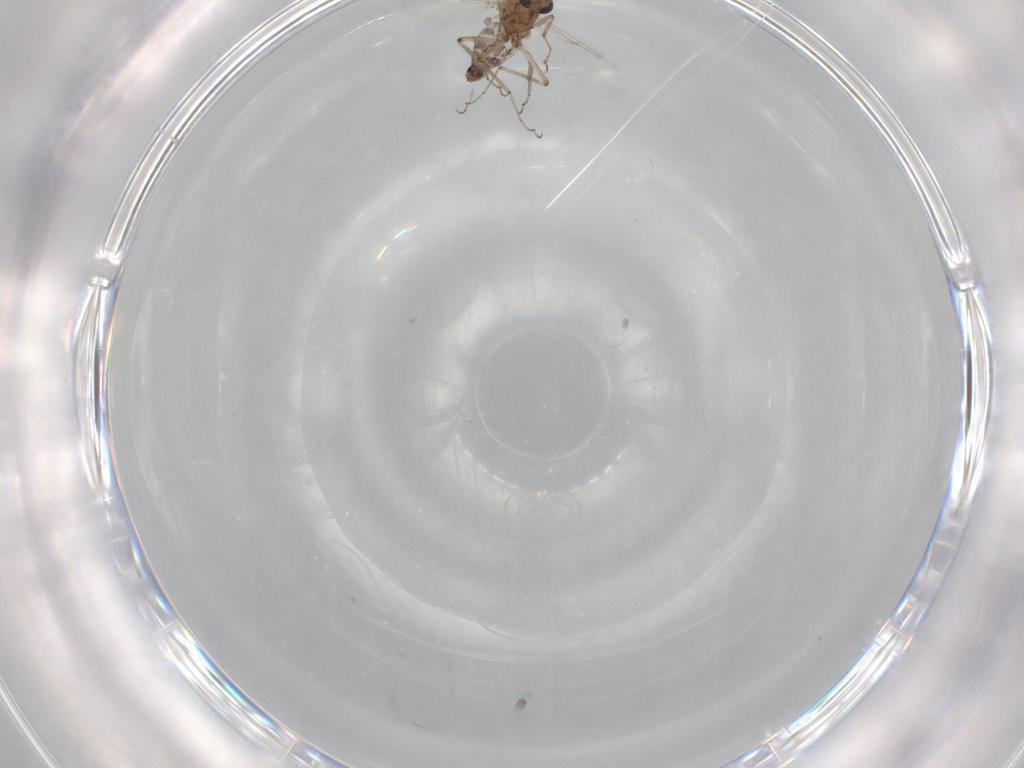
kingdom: Animalia
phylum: Arthropoda
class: Insecta
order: Diptera
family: Ceratopogonidae
